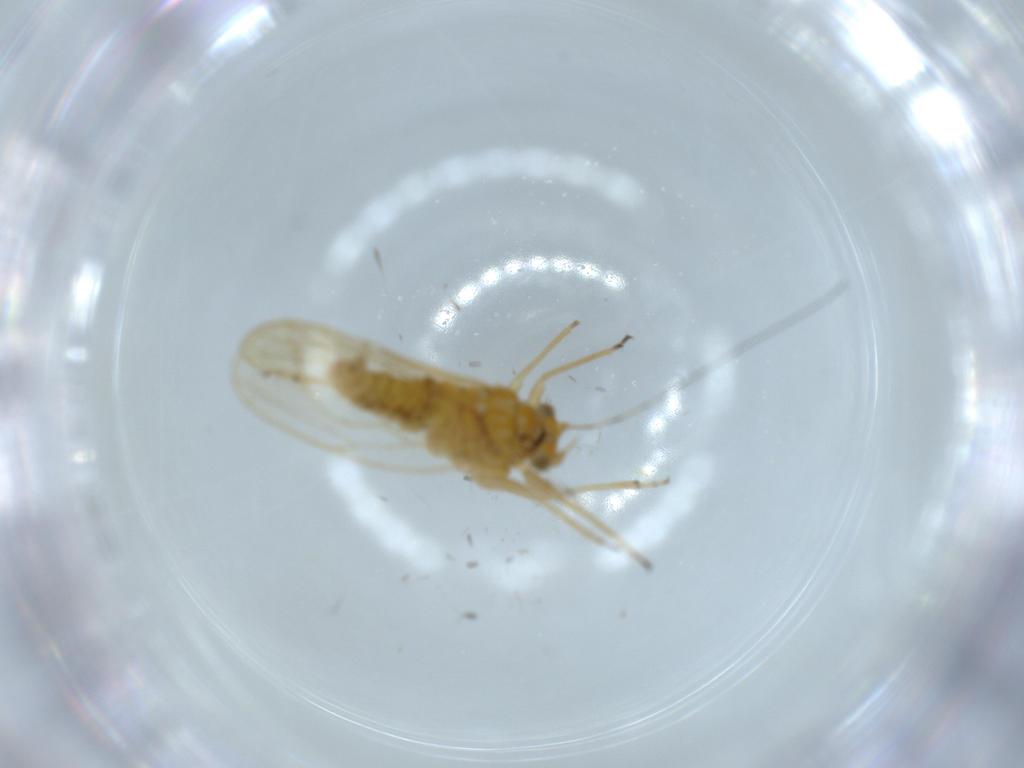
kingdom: Animalia
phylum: Arthropoda
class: Insecta
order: Hemiptera
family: Psyllidae
